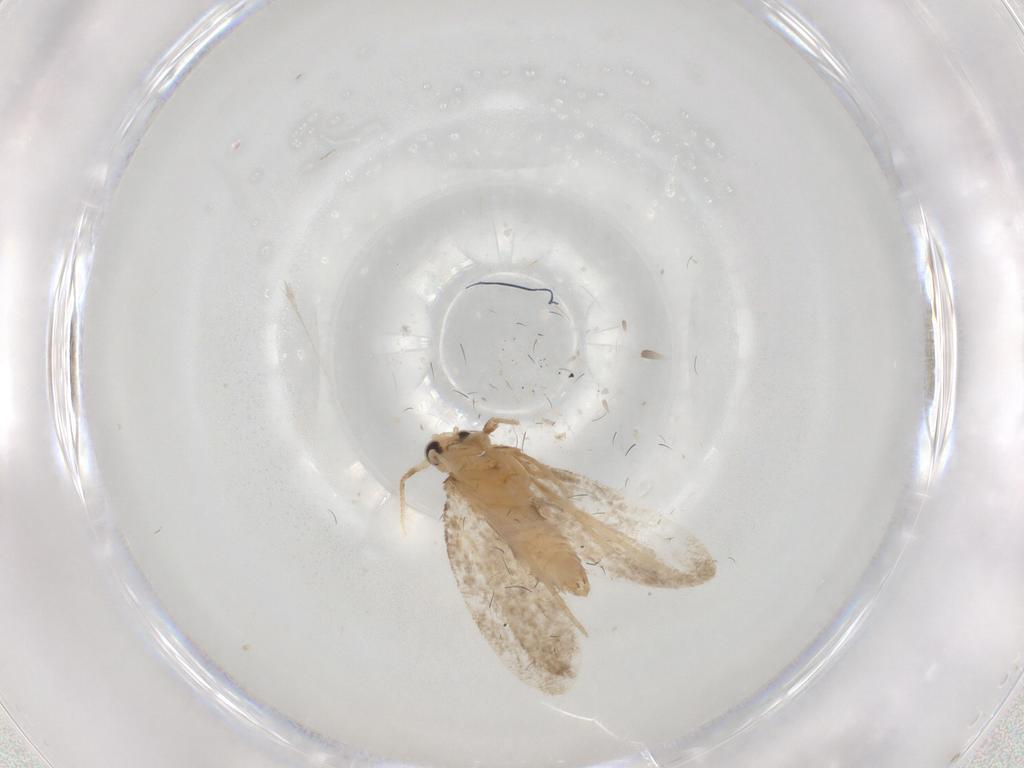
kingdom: Animalia
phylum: Arthropoda
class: Insecta
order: Lepidoptera
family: Psychidae
